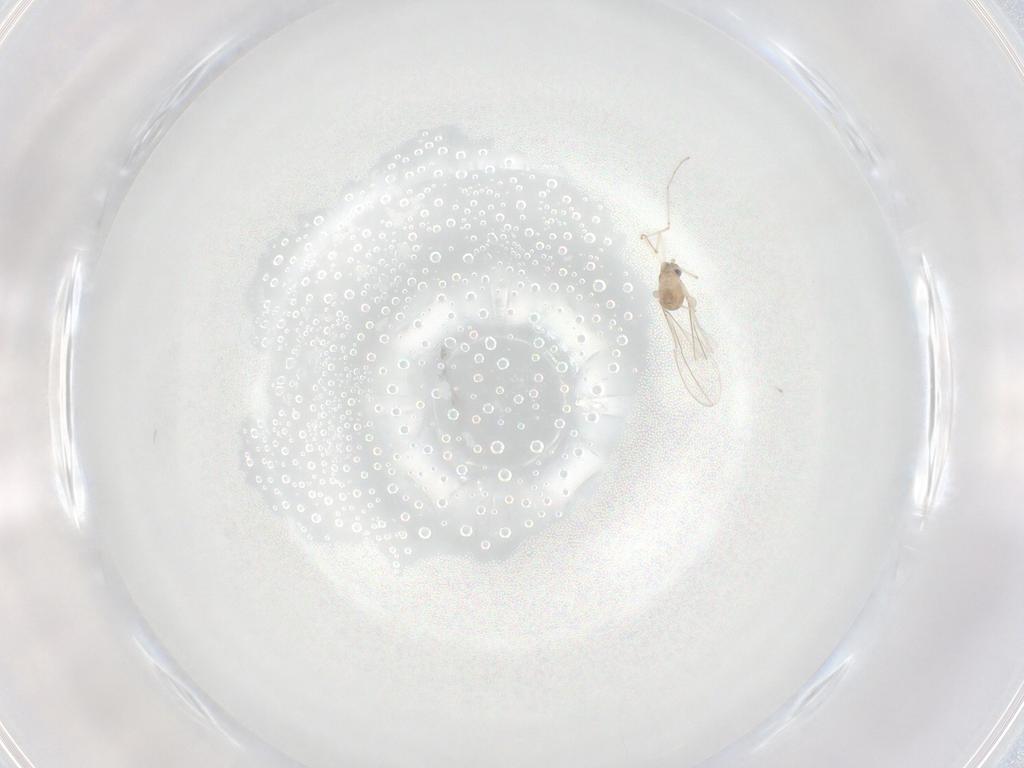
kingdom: Animalia
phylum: Arthropoda
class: Insecta
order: Diptera
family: Cecidomyiidae
